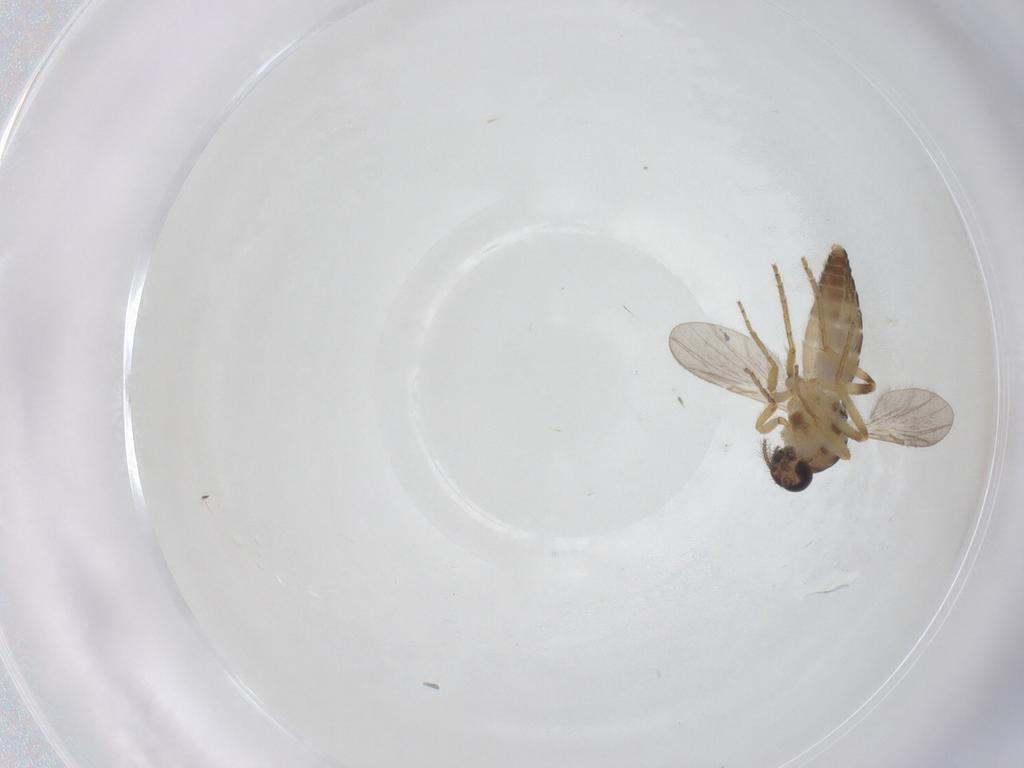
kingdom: Animalia
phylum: Arthropoda
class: Insecta
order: Diptera
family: Ceratopogonidae
